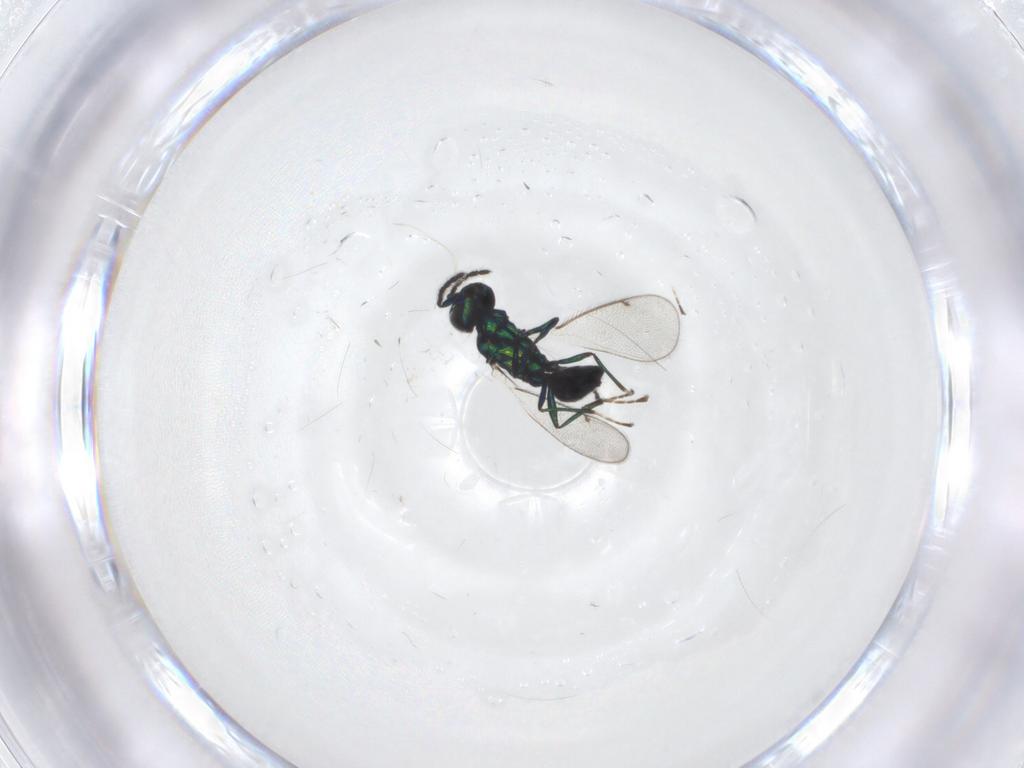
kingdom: Animalia
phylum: Arthropoda
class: Insecta
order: Hymenoptera
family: Eulophidae
